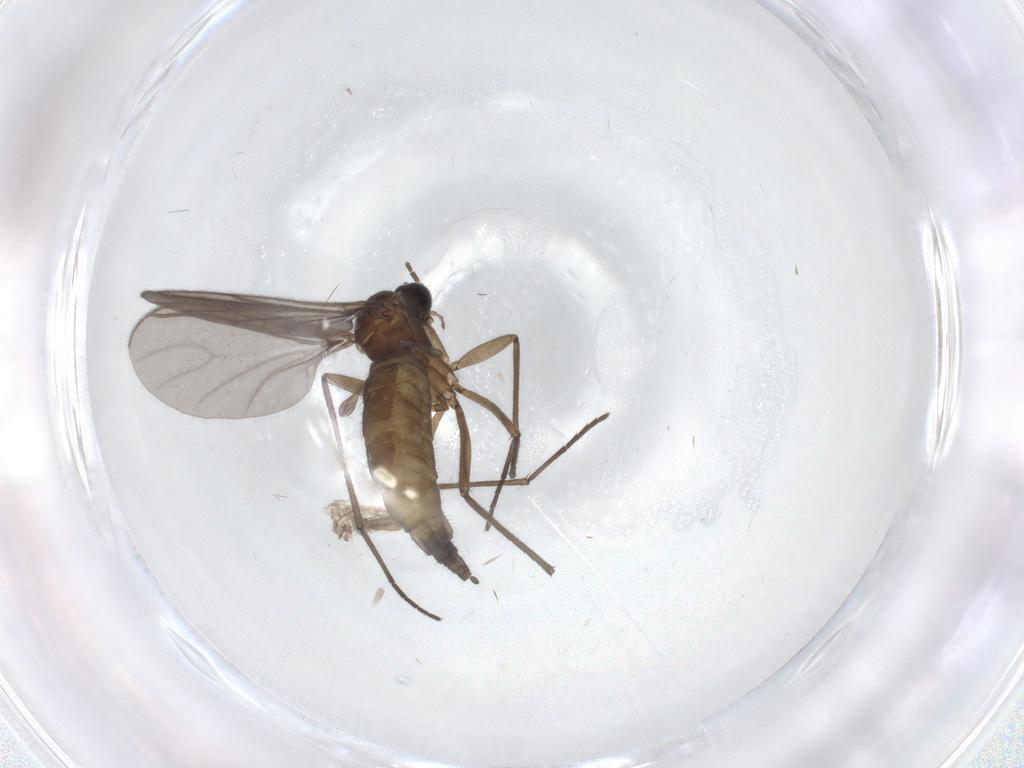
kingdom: Animalia
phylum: Arthropoda
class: Insecta
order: Diptera
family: Sciaridae
